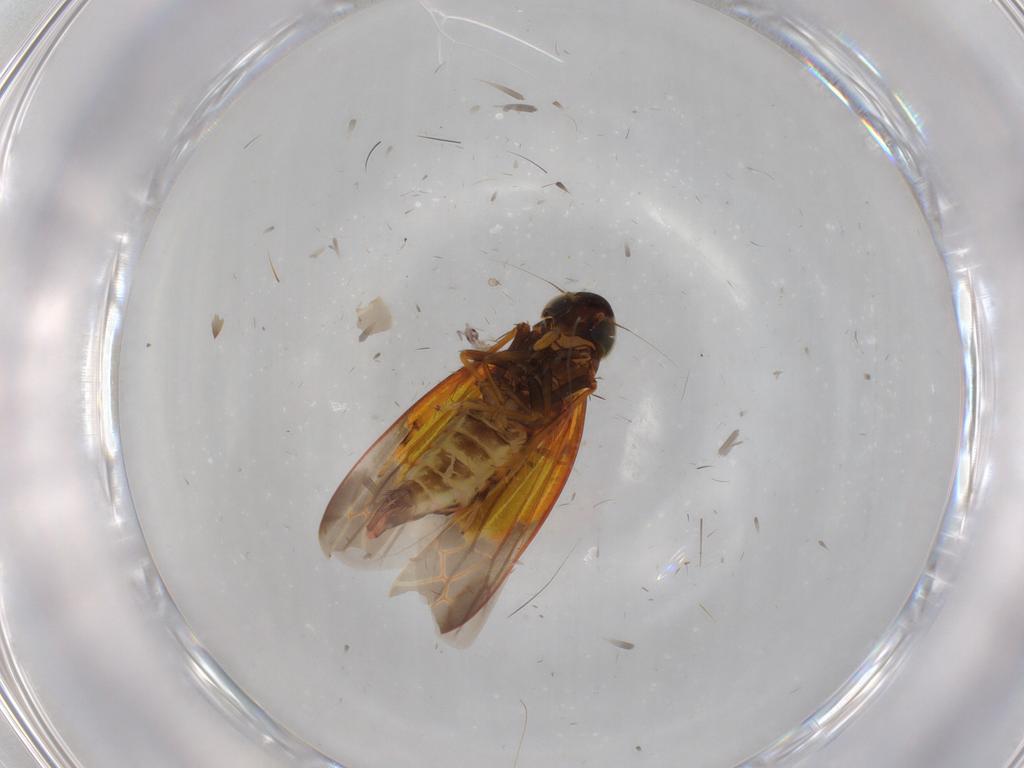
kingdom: Animalia
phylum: Arthropoda
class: Insecta
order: Hemiptera
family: Cicadellidae
